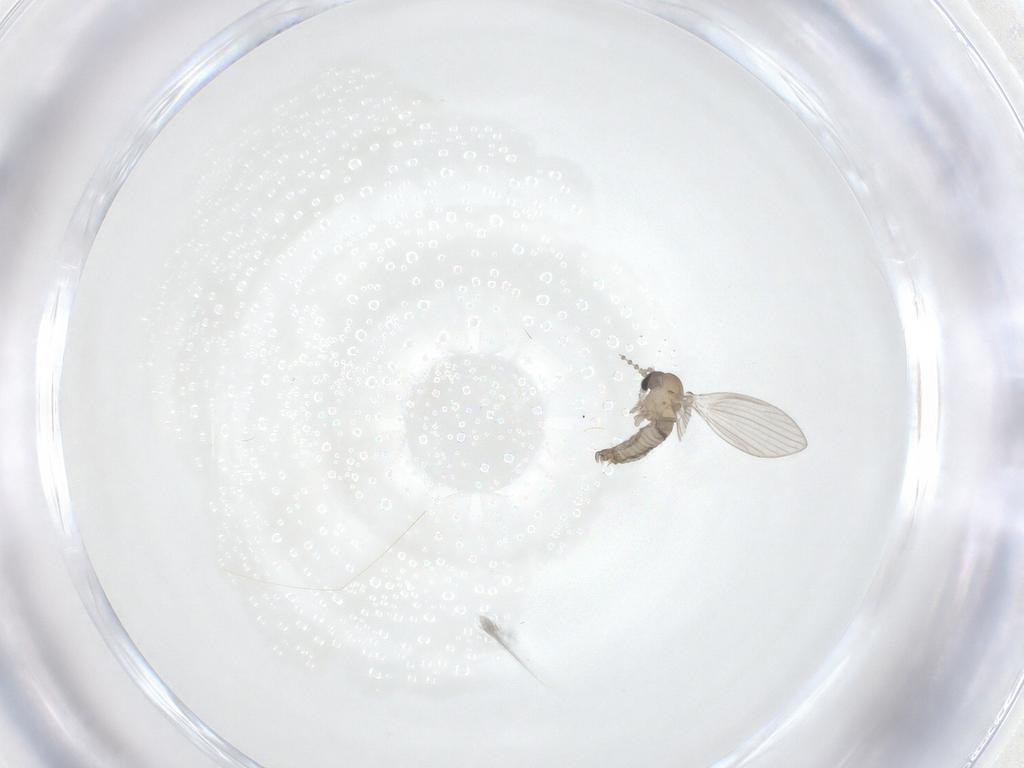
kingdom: Animalia
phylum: Arthropoda
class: Insecta
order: Diptera
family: Psychodidae
